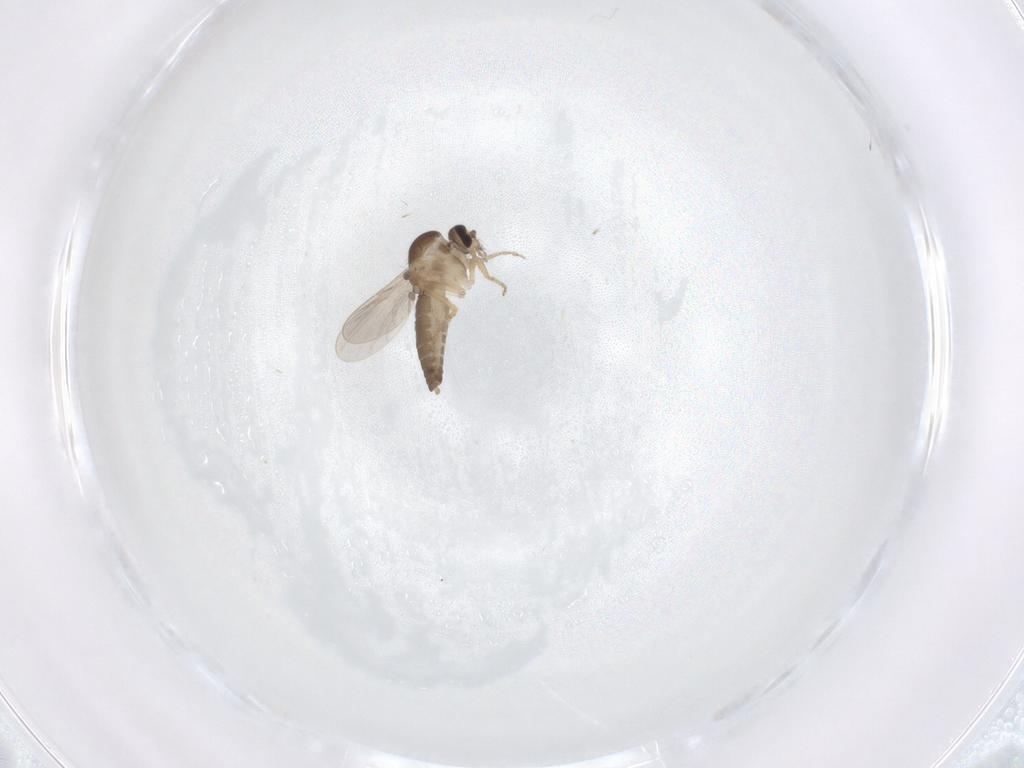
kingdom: Animalia
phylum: Arthropoda
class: Insecta
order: Diptera
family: Ceratopogonidae
